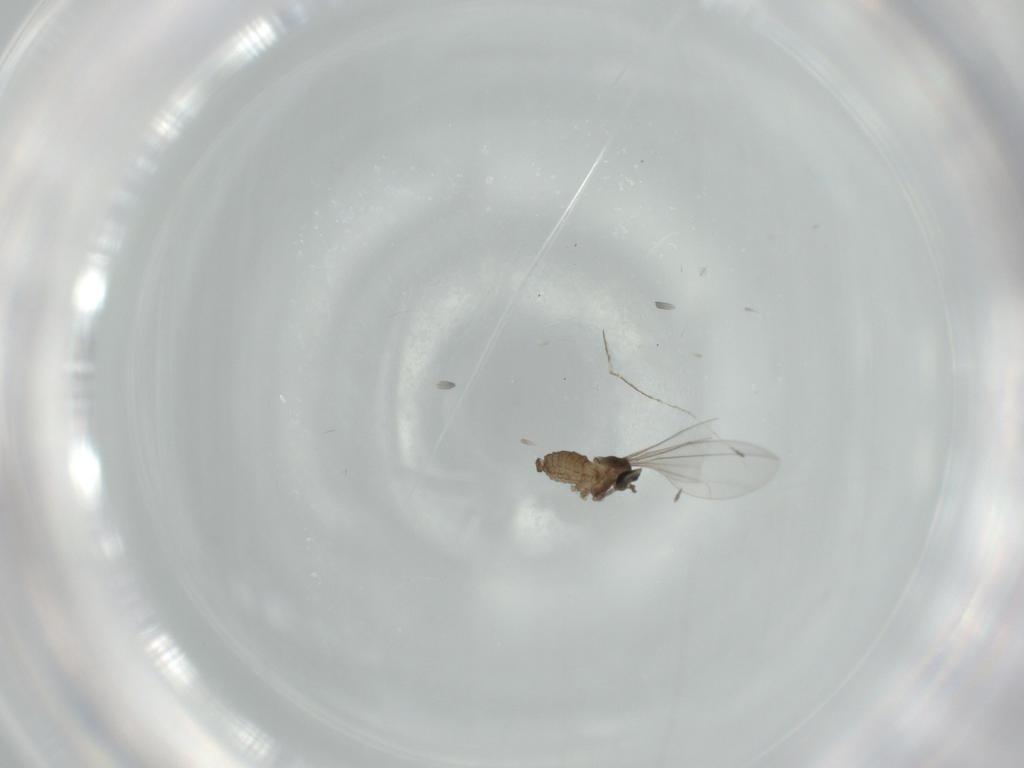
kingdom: Animalia
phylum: Arthropoda
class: Insecta
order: Diptera
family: Cecidomyiidae
